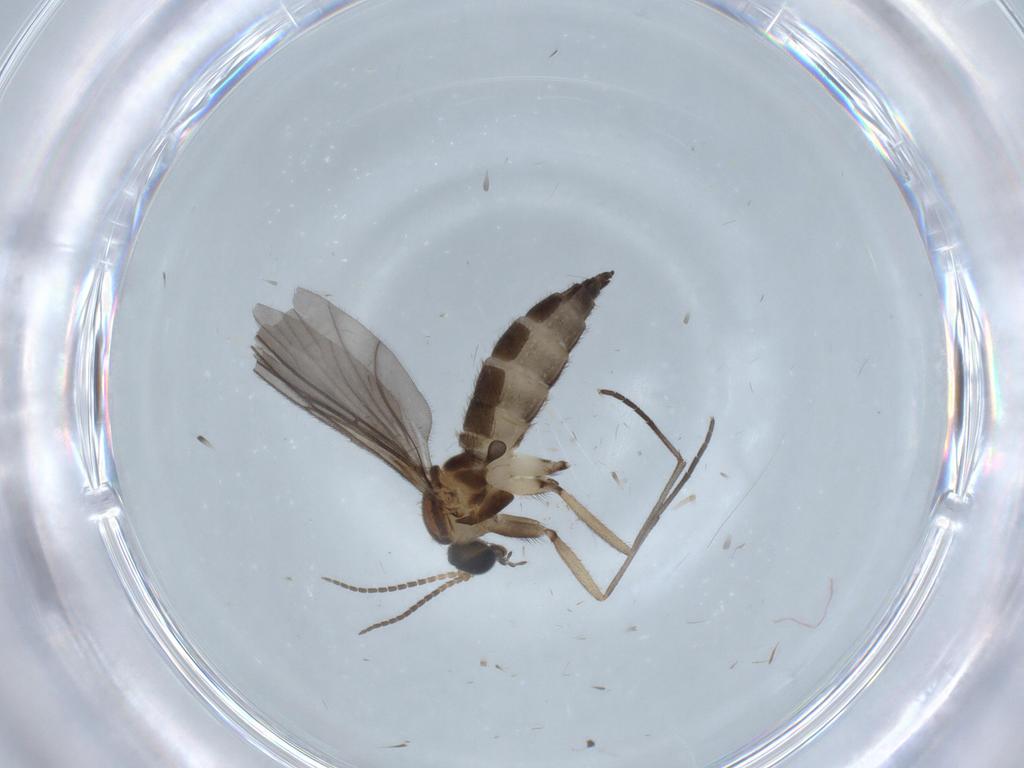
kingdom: Animalia
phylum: Arthropoda
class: Insecta
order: Diptera
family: Sciaridae
